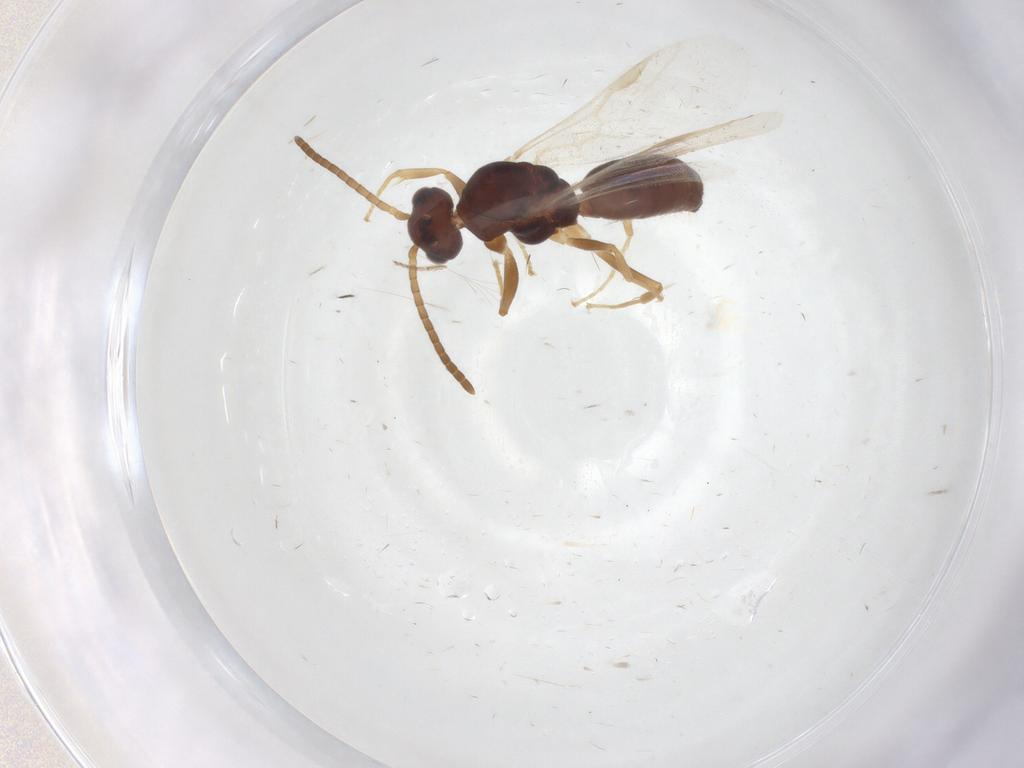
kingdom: Animalia
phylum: Arthropoda
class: Insecta
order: Hymenoptera
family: Formicidae
